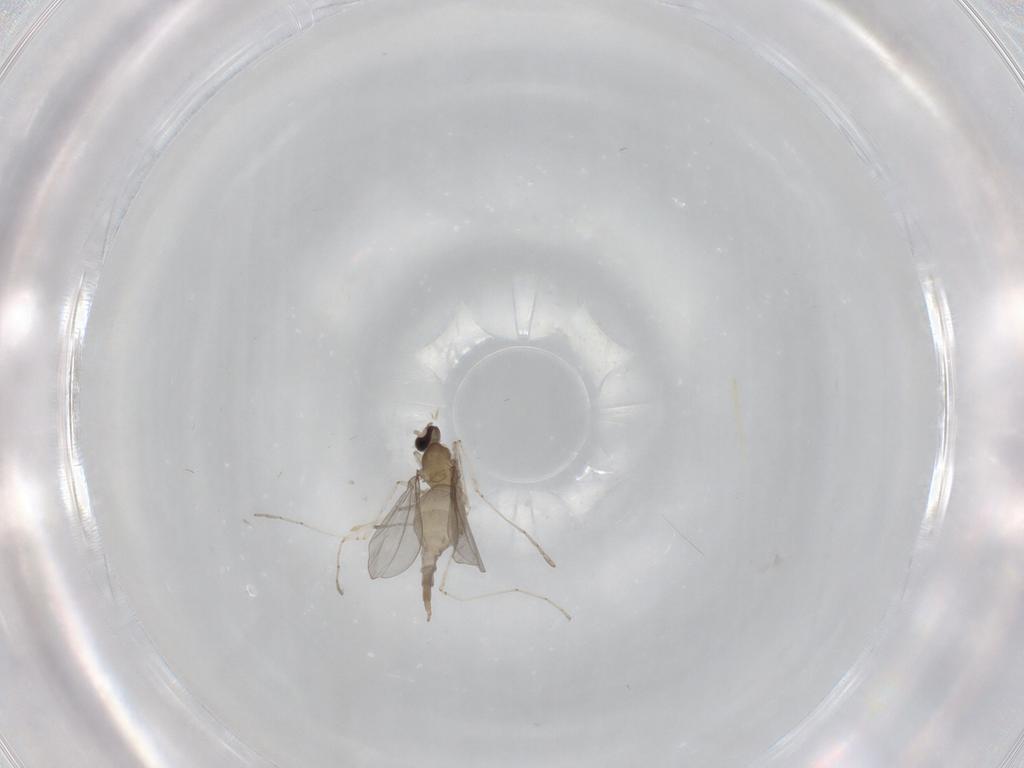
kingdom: Animalia
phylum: Arthropoda
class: Insecta
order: Diptera
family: Cecidomyiidae
